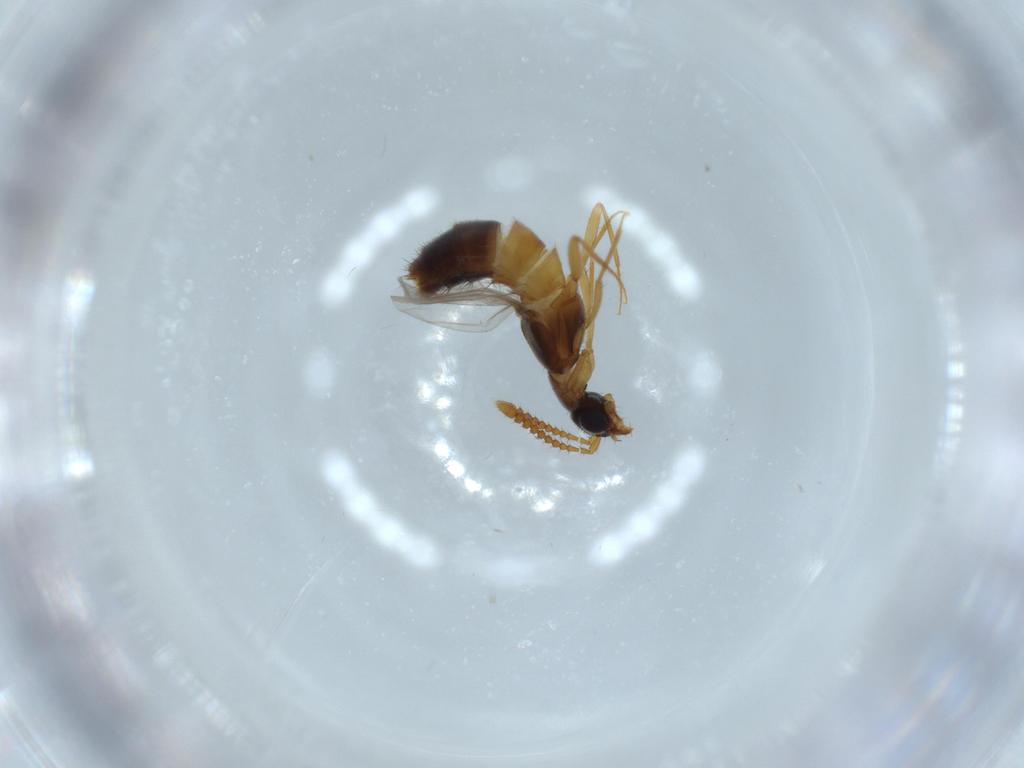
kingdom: Animalia
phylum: Arthropoda
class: Insecta
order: Coleoptera
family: Staphylinidae
